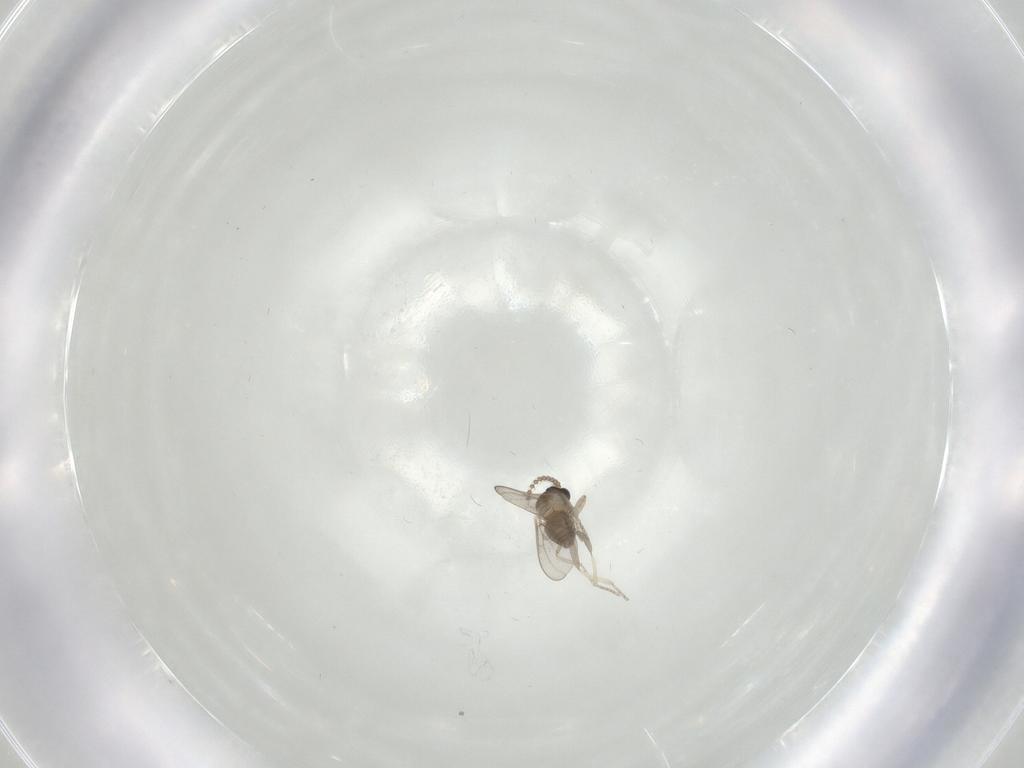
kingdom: Animalia
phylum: Arthropoda
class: Insecta
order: Diptera
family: Cecidomyiidae
